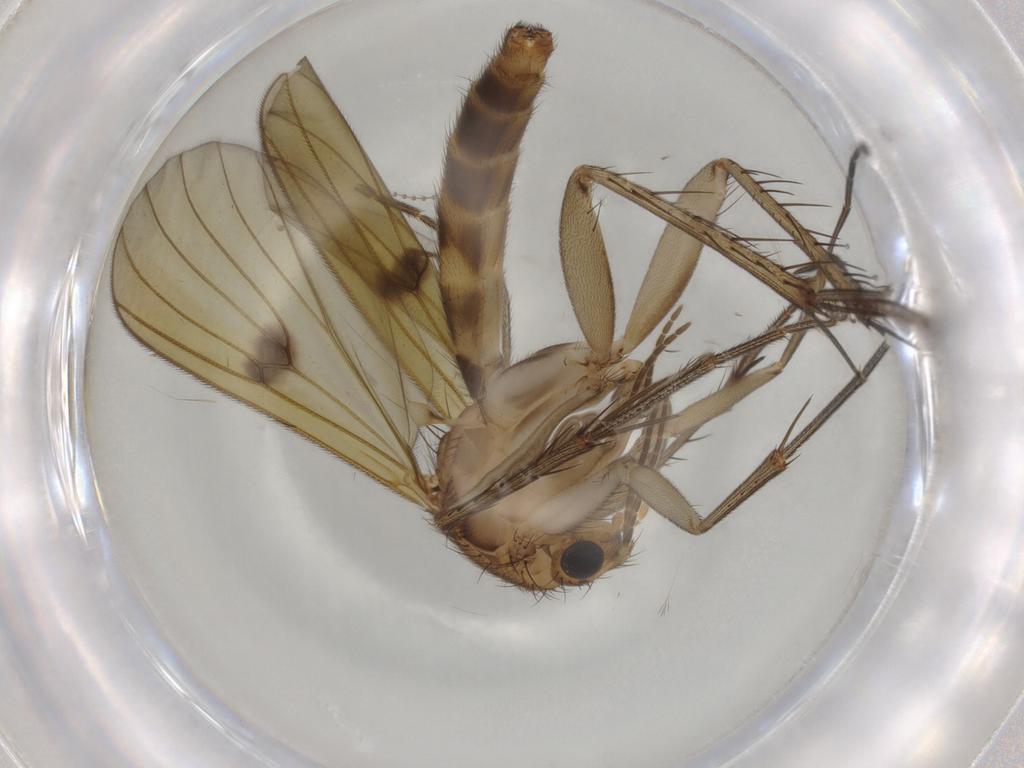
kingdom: Animalia
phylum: Arthropoda
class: Insecta
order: Diptera
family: Mycetophilidae
